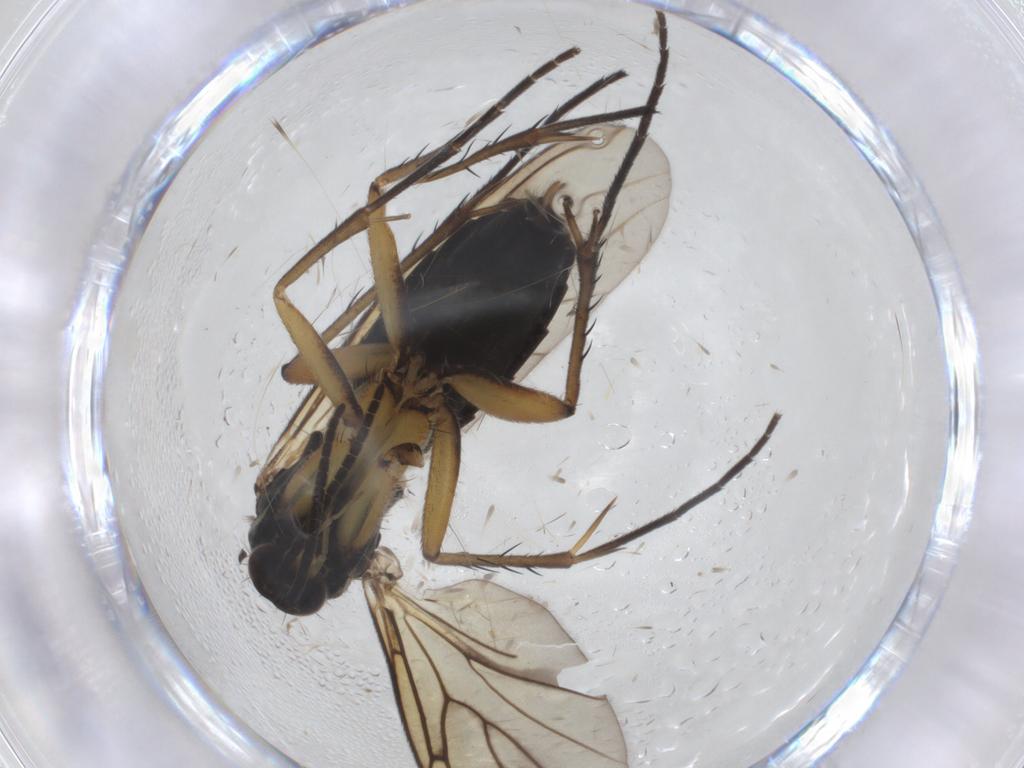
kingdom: Animalia
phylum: Arthropoda
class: Insecta
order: Diptera
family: Mycetophilidae
